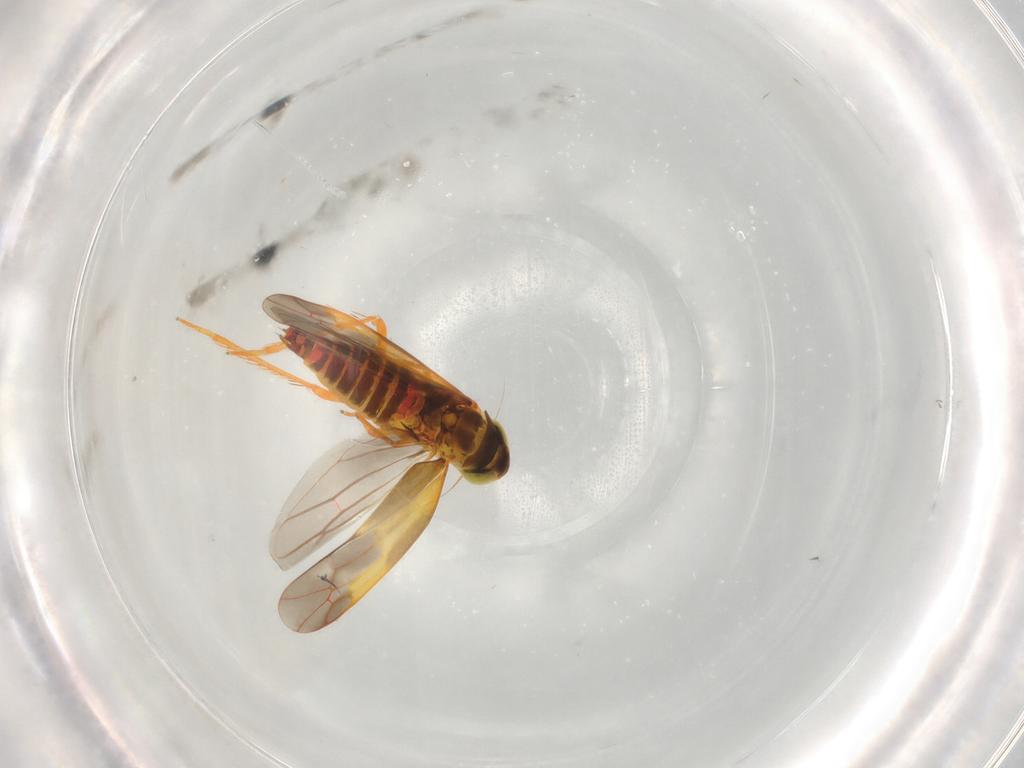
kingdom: Animalia
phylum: Arthropoda
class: Insecta
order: Hemiptera
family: Cicadellidae
